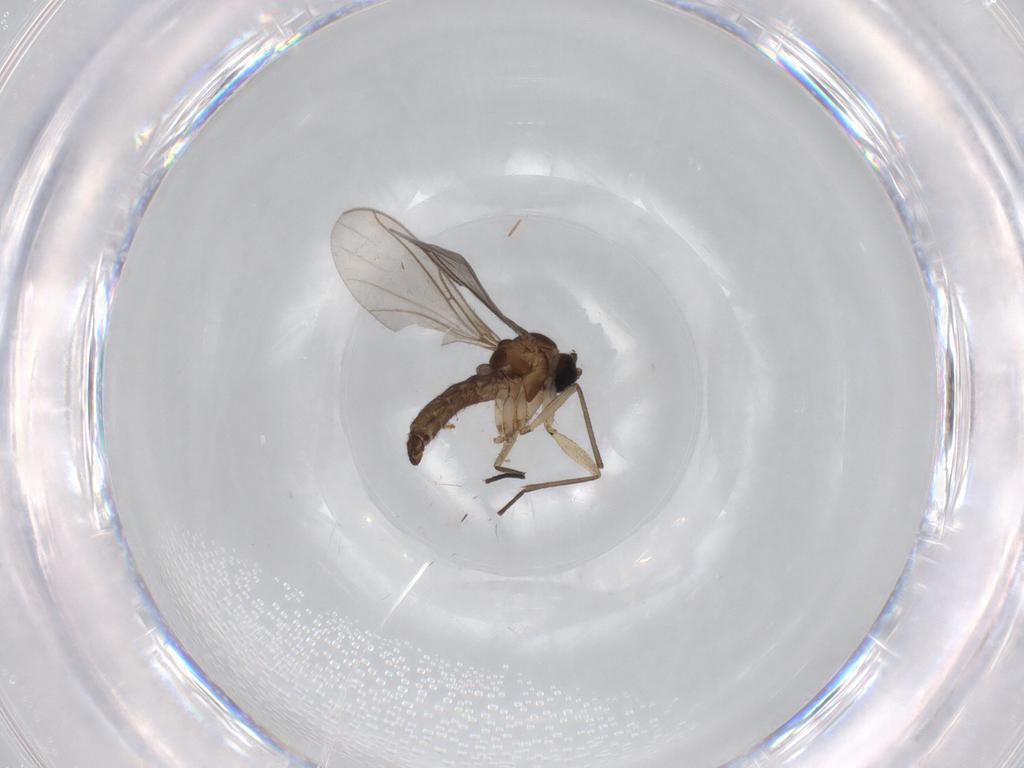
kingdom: Animalia
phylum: Arthropoda
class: Insecta
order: Diptera
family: Sciaridae
